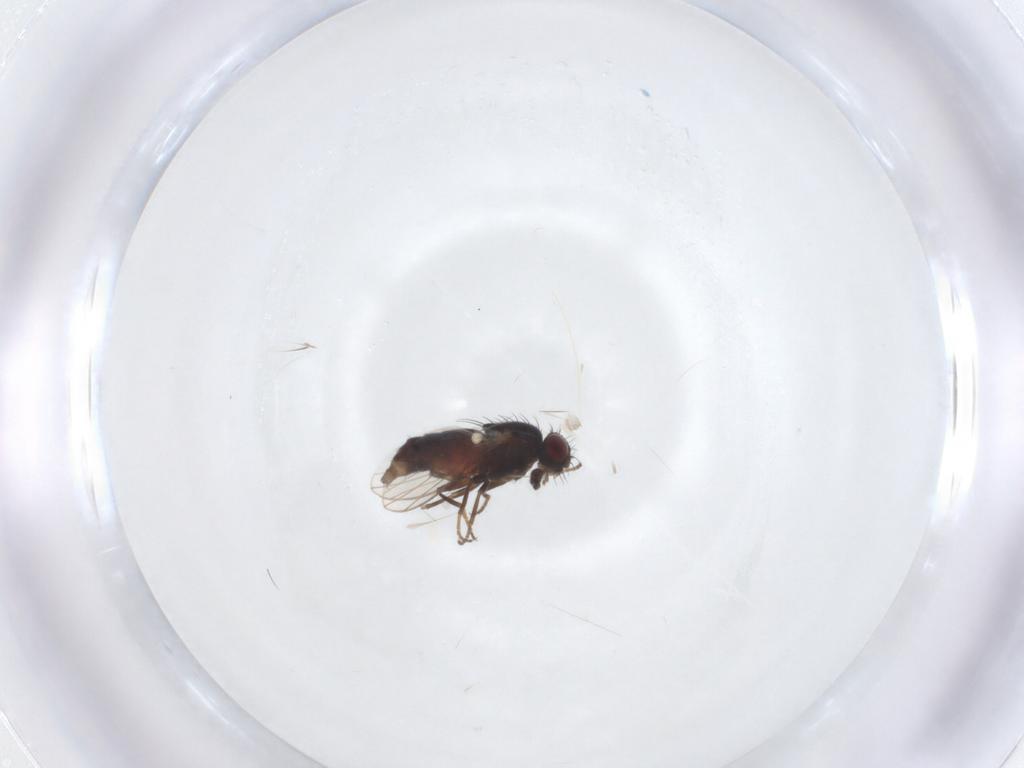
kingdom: Animalia
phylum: Arthropoda
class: Insecta
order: Diptera
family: Carnidae
